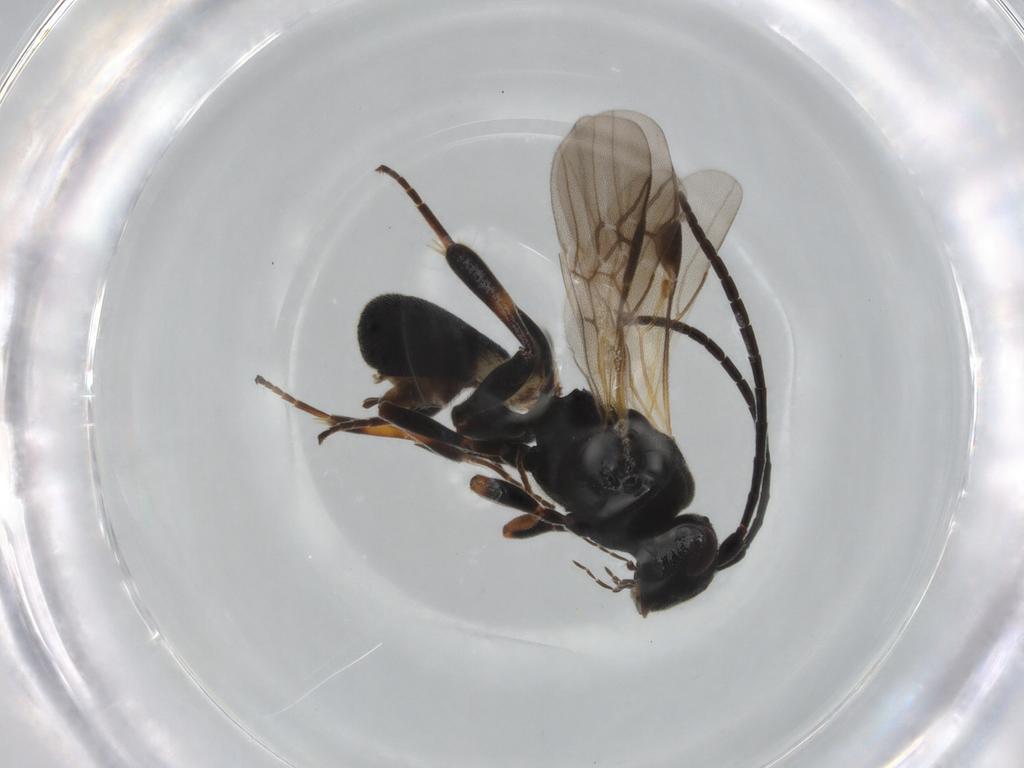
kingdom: Animalia
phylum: Arthropoda
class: Insecta
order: Hymenoptera
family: Braconidae
